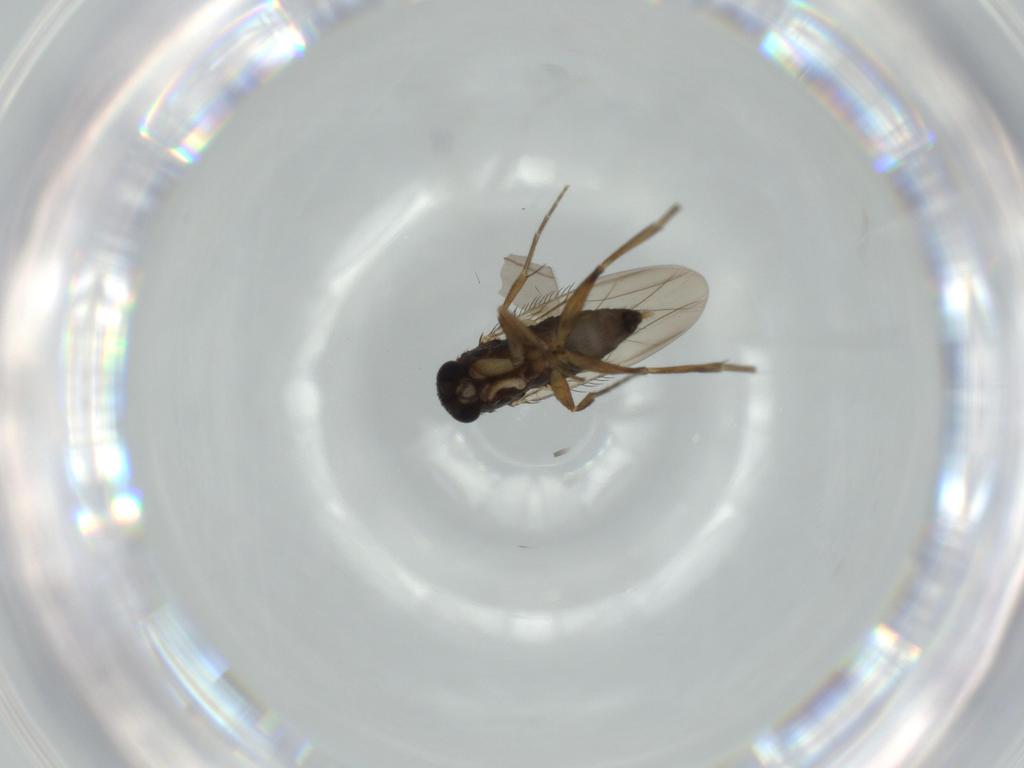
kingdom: Animalia
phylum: Arthropoda
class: Insecta
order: Diptera
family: Phoridae
